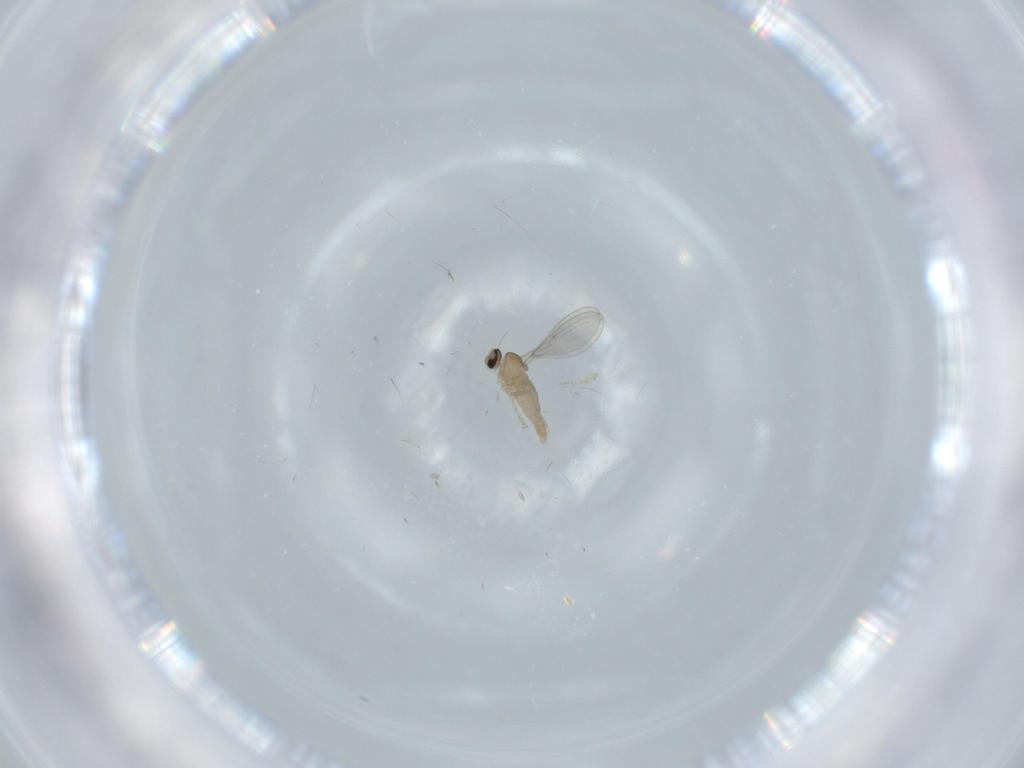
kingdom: Animalia
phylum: Arthropoda
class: Insecta
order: Diptera
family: Cecidomyiidae
